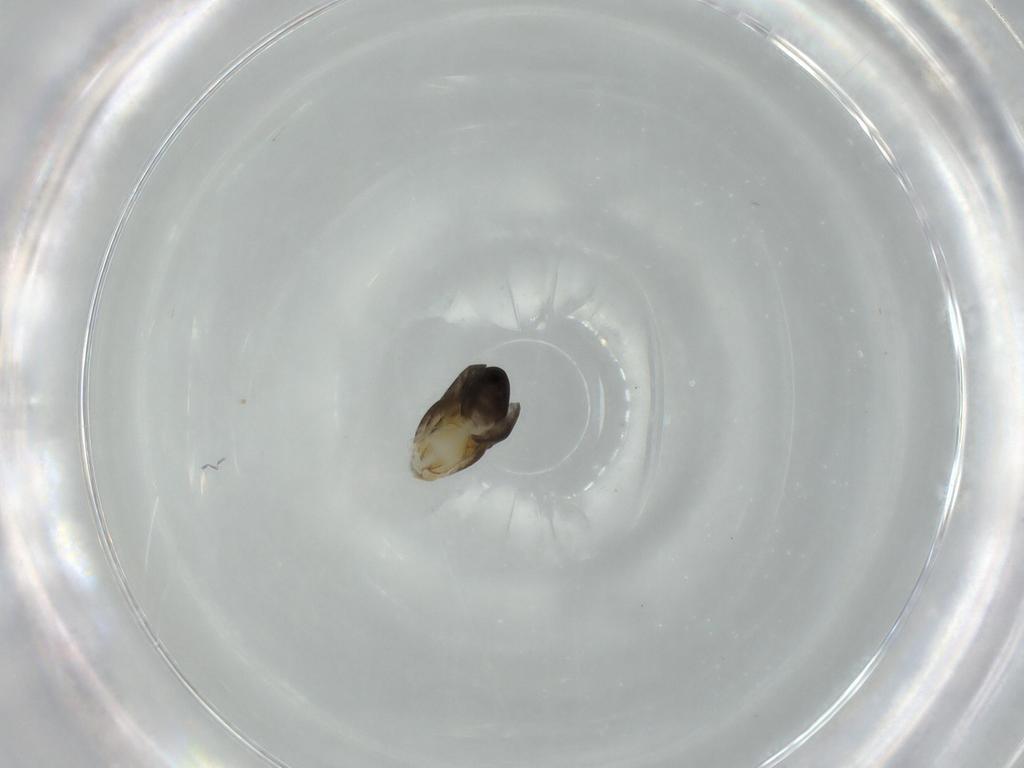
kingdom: Animalia
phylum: Arthropoda
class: Insecta
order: Hymenoptera
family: Dryinidae
